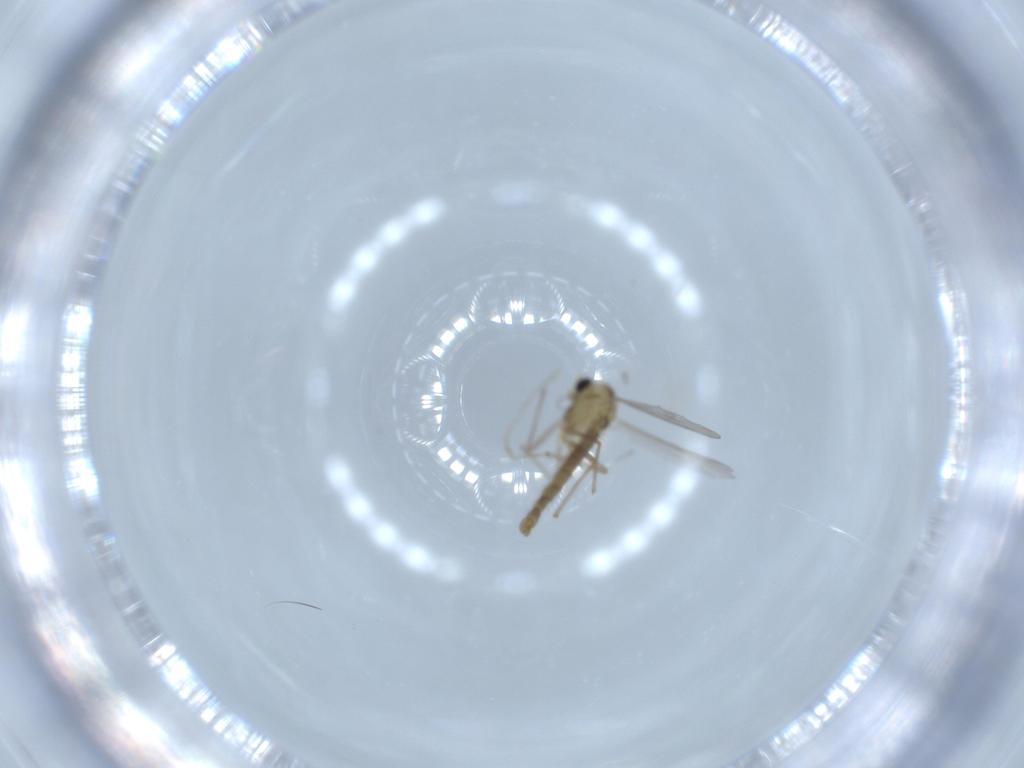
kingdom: Animalia
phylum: Arthropoda
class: Insecta
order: Diptera
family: Chironomidae
